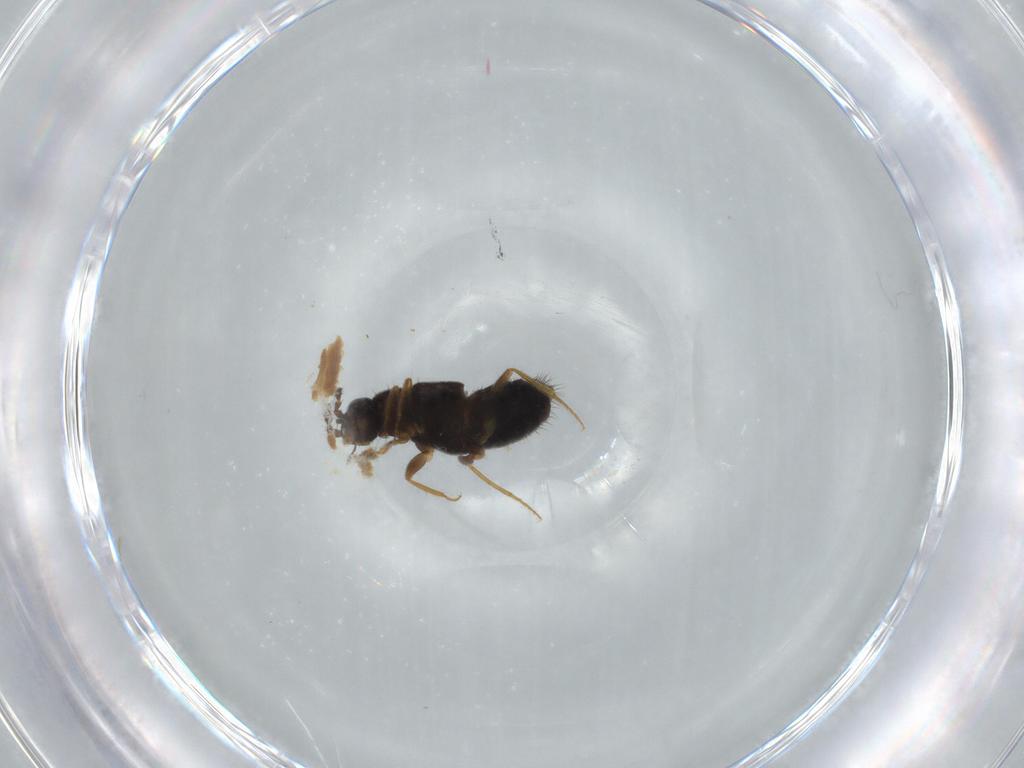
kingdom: Animalia
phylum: Arthropoda
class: Insecta
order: Coleoptera
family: Staphylinidae
